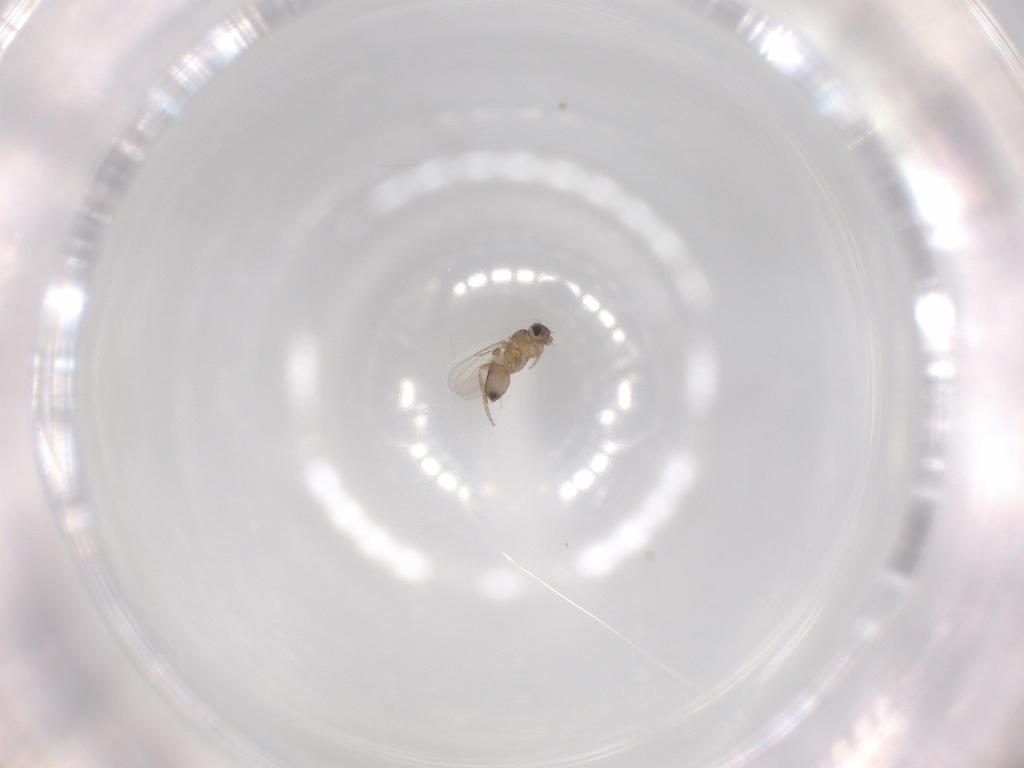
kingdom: Animalia
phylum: Arthropoda
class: Insecta
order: Diptera
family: Phoridae
